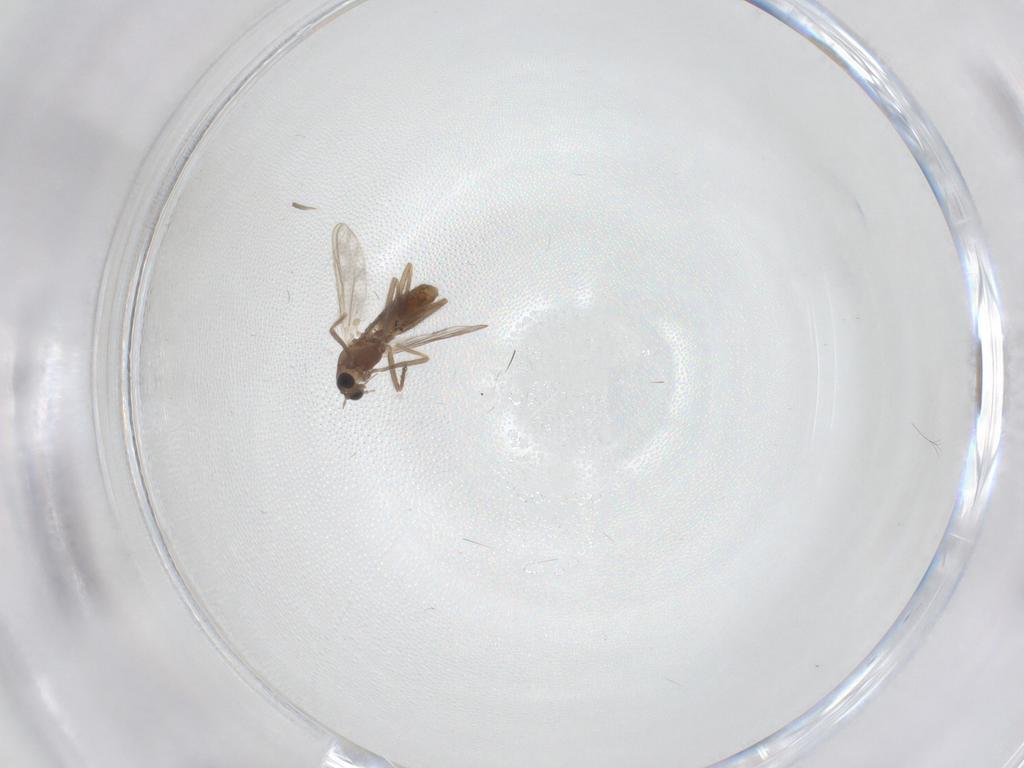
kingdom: Animalia
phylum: Arthropoda
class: Insecta
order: Diptera
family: Chironomidae
